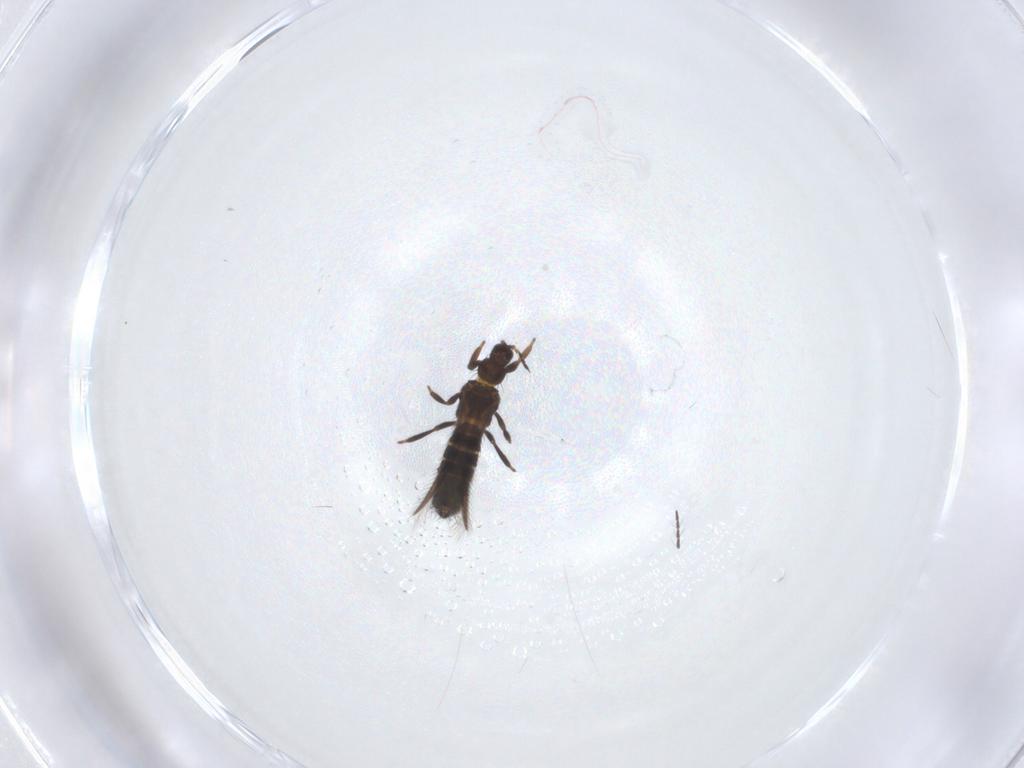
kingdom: Animalia
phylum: Arthropoda
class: Insecta
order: Thysanoptera
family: Thripidae
